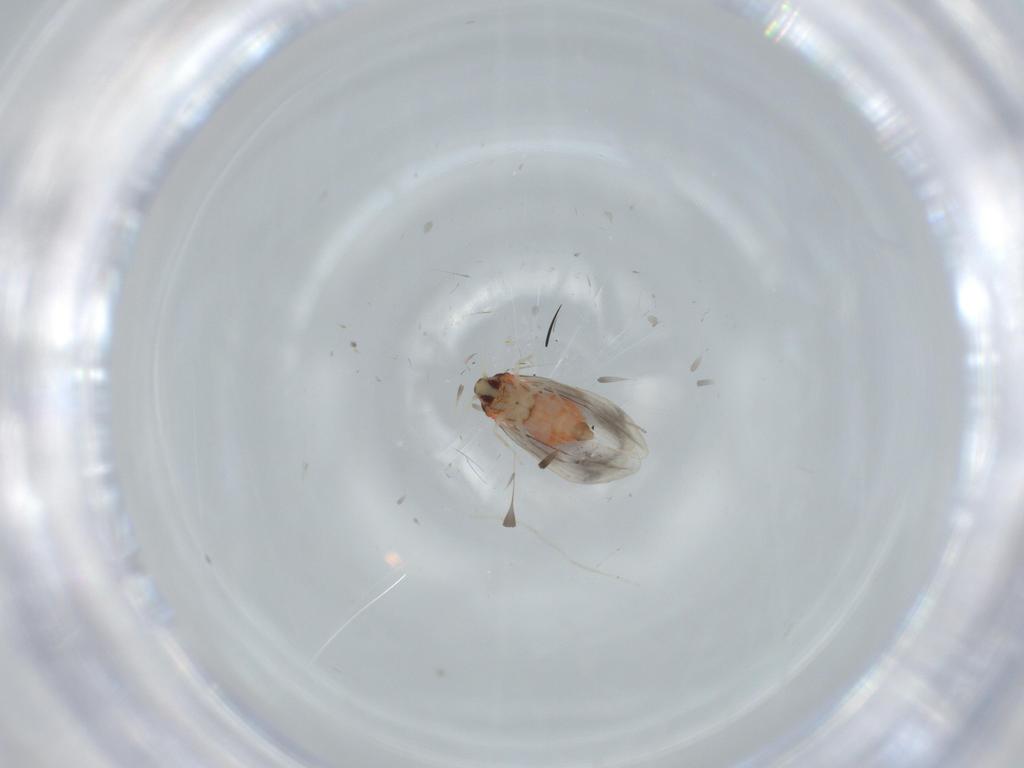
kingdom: Animalia
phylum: Arthropoda
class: Insecta
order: Hemiptera
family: Aleyrodidae
